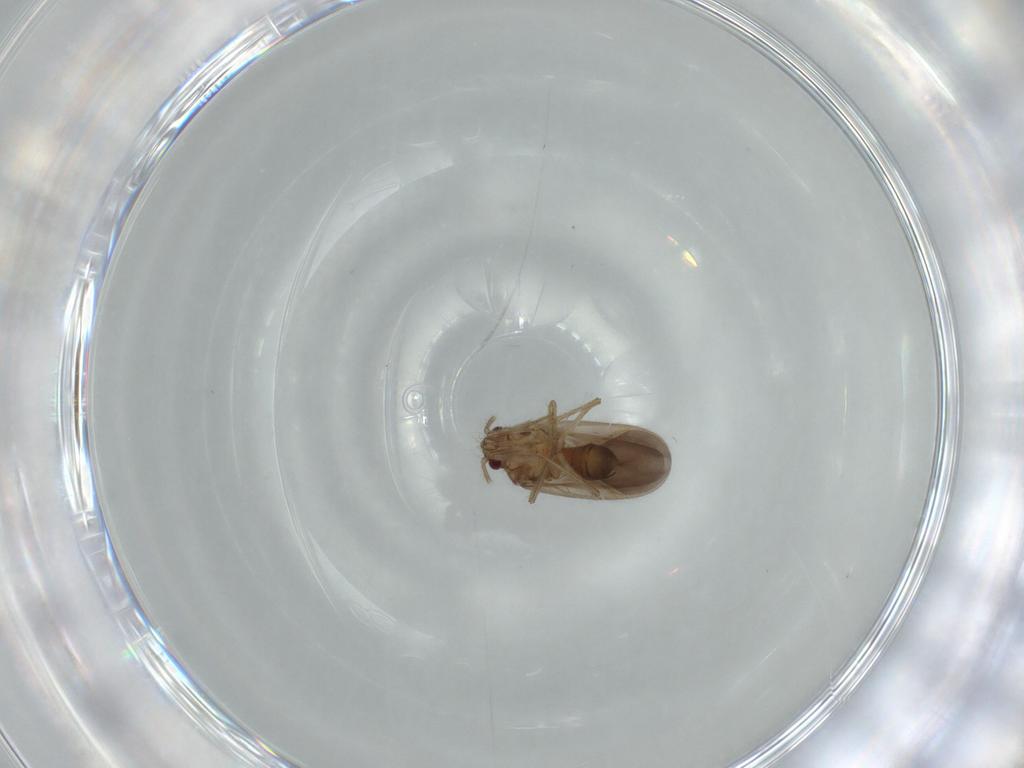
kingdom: Animalia
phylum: Arthropoda
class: Insecta
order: Hemiptera
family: Ceratocombidae
